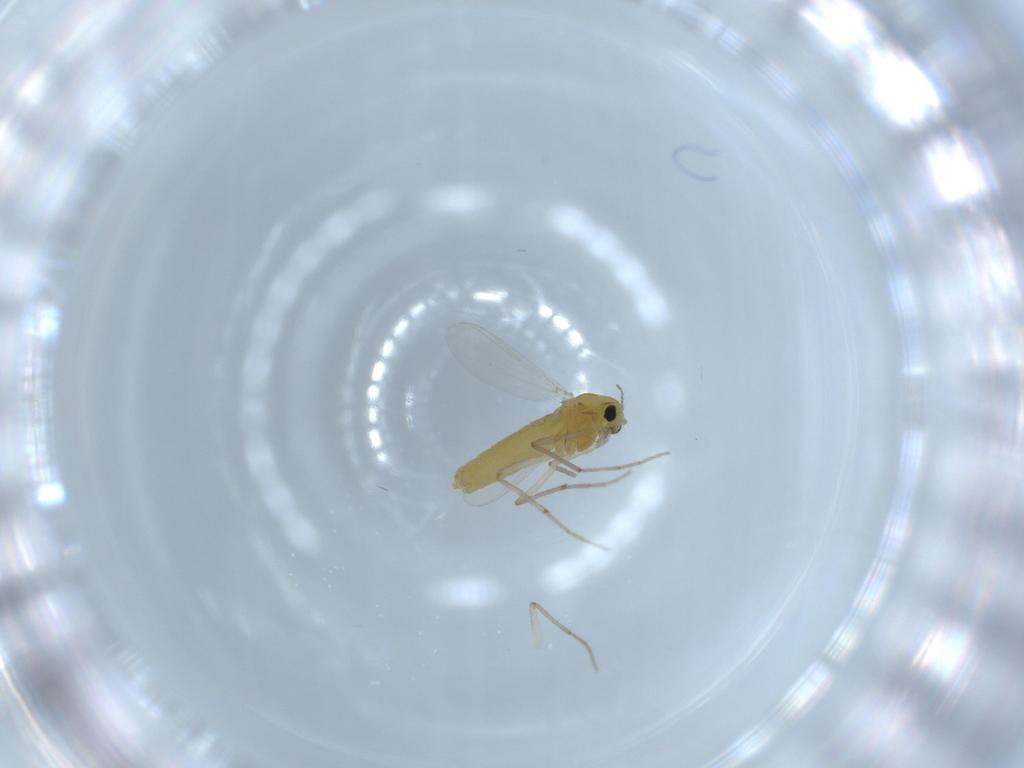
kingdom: Animalia
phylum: Arthropoda
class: Insecta
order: Diptera
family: Chironomidae
